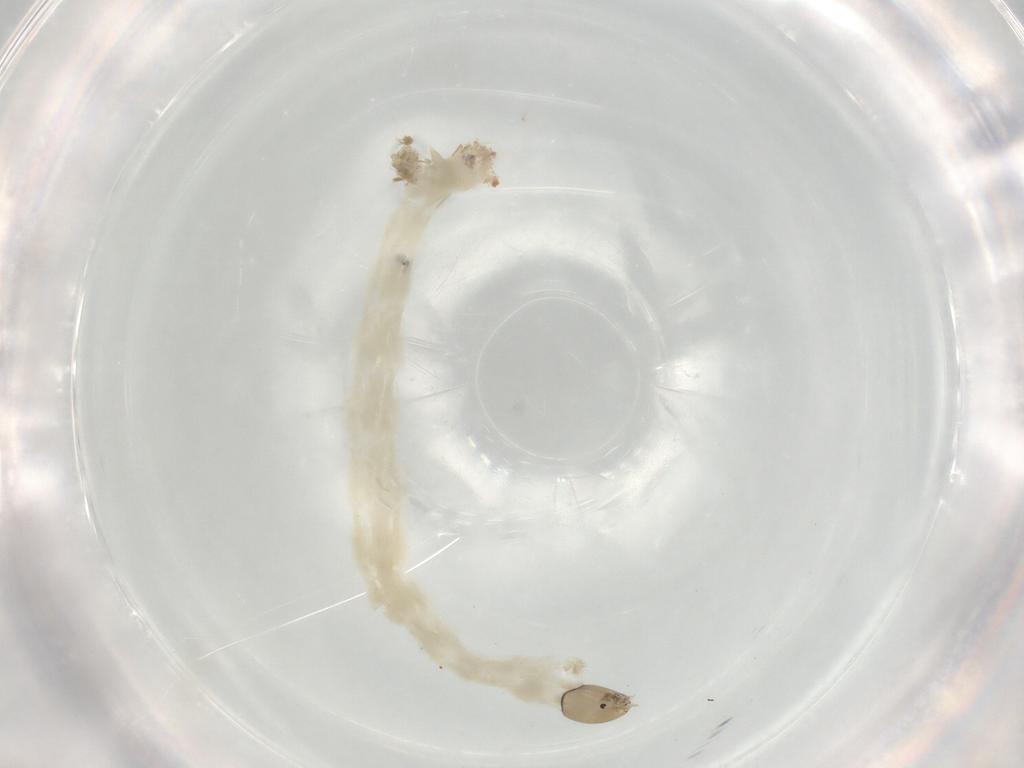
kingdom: Animalia
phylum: Arthropoda
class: Insecta
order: Diptera
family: Chironomidae
